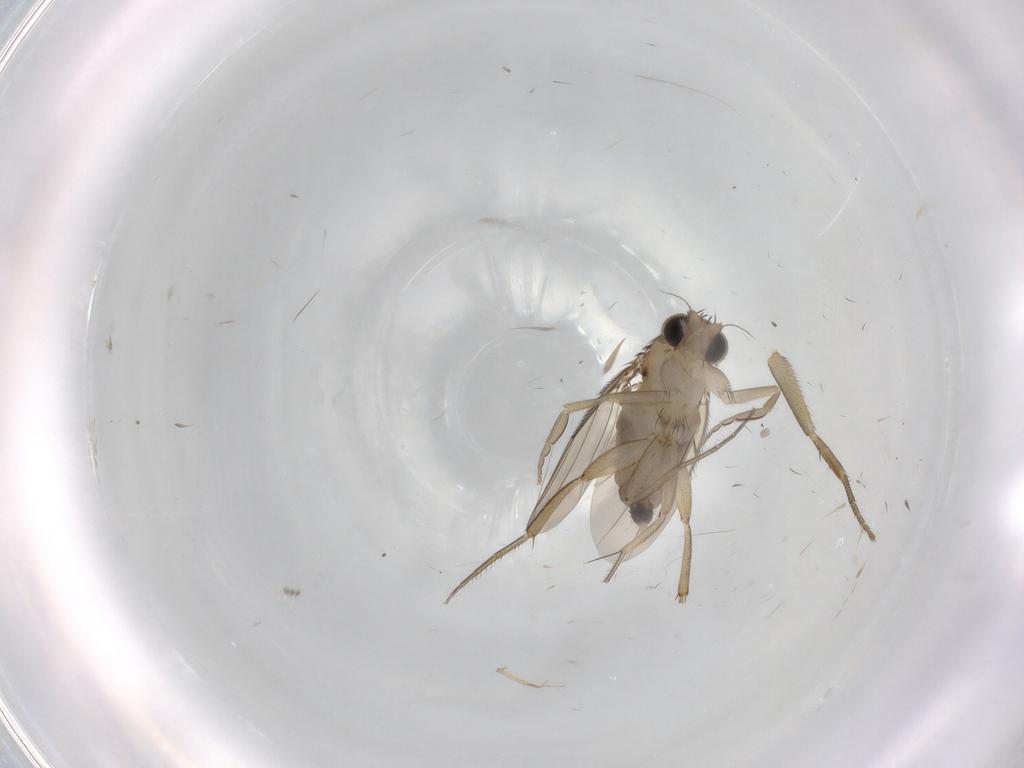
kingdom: Animalia
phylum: Arthropoda
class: Insecta
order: Diptera
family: Phoridae
